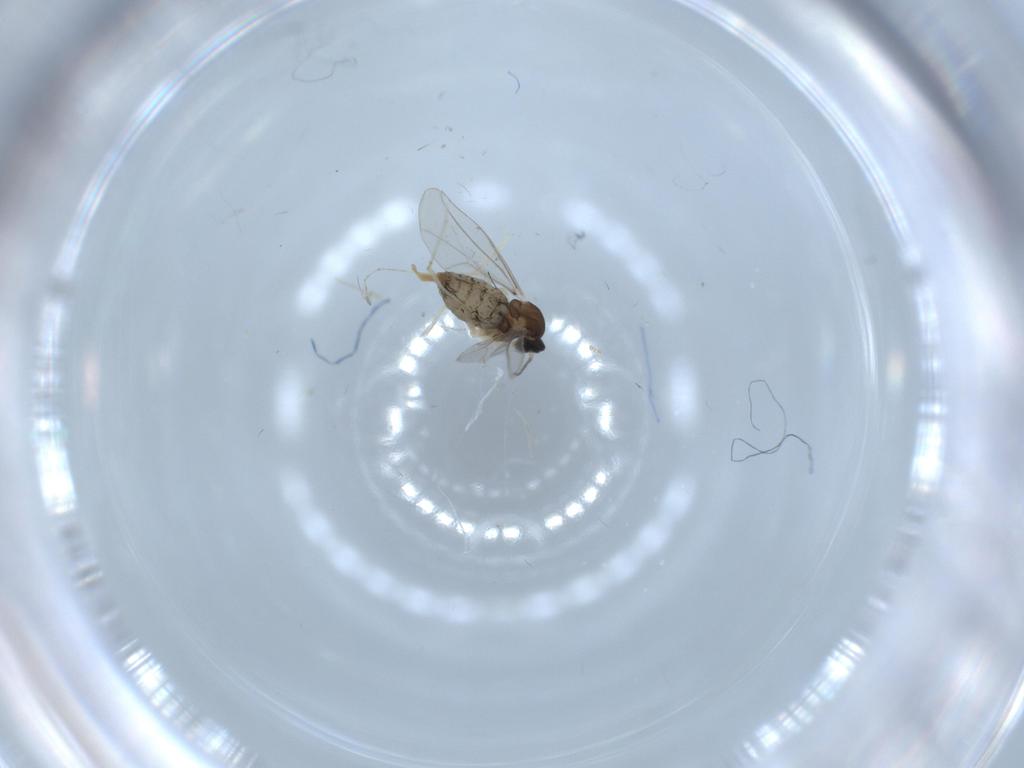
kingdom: Animalia
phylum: Arthropoda
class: Insecta
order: Diptera
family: Cecidomyiidae
